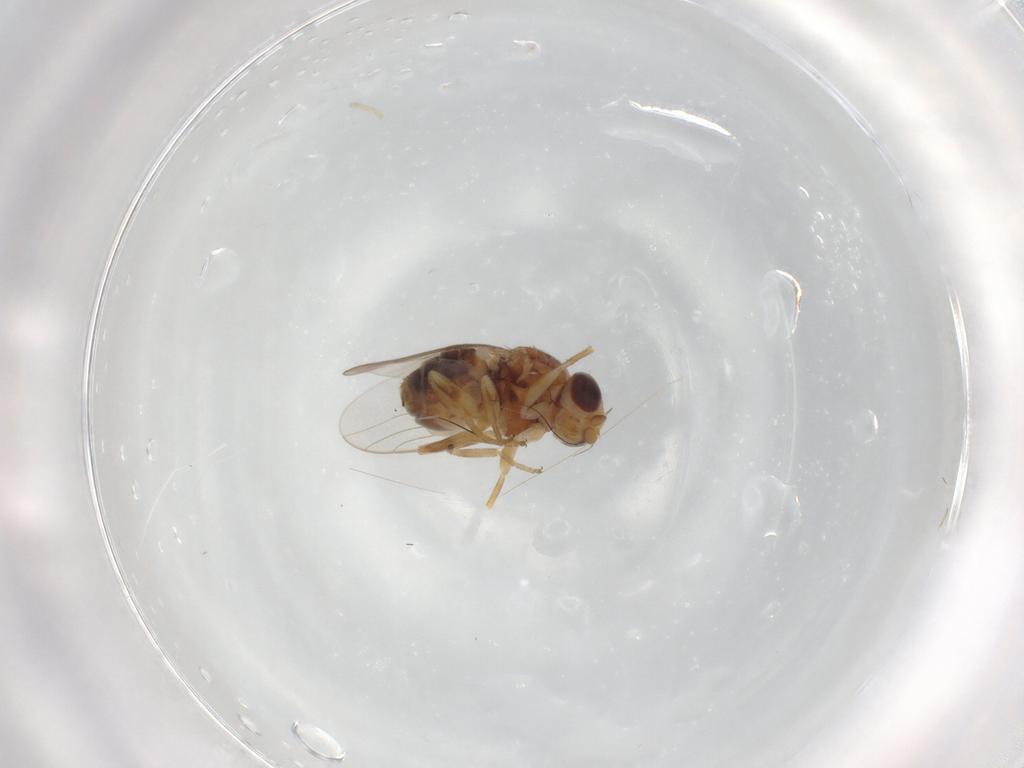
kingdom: Animalia
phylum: Arthropoda
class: Insecta
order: Diptera
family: Chloropidae
